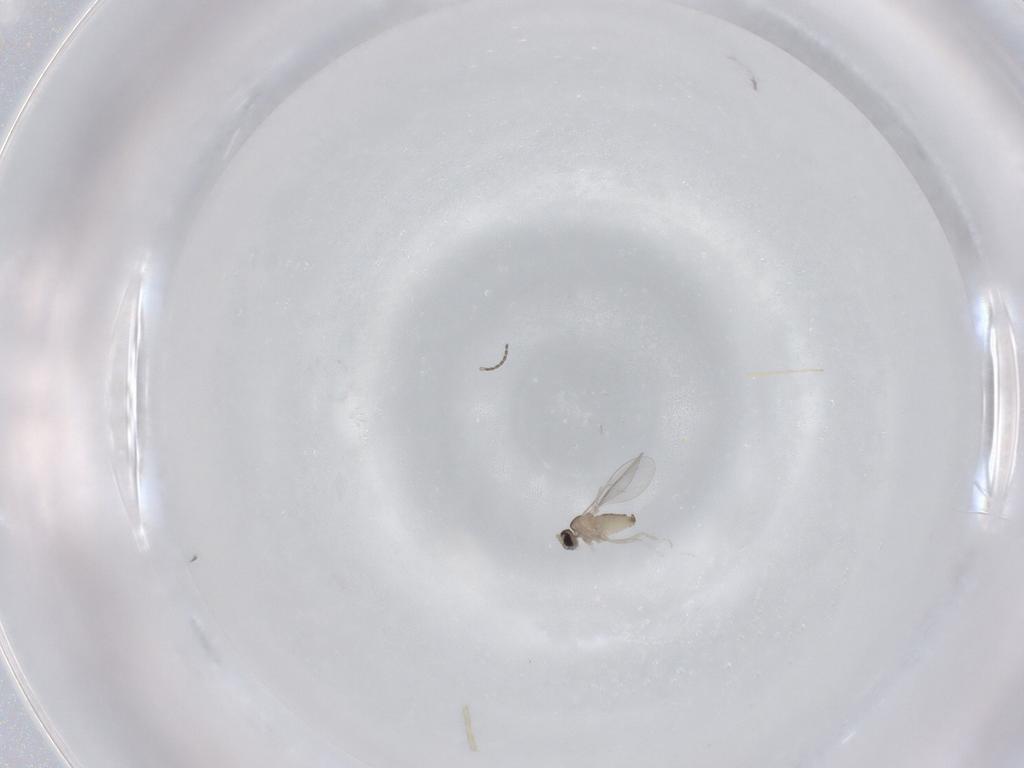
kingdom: Animalia
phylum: Arthropoda
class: Insecta
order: Diptera
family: Cecidomyiidae
